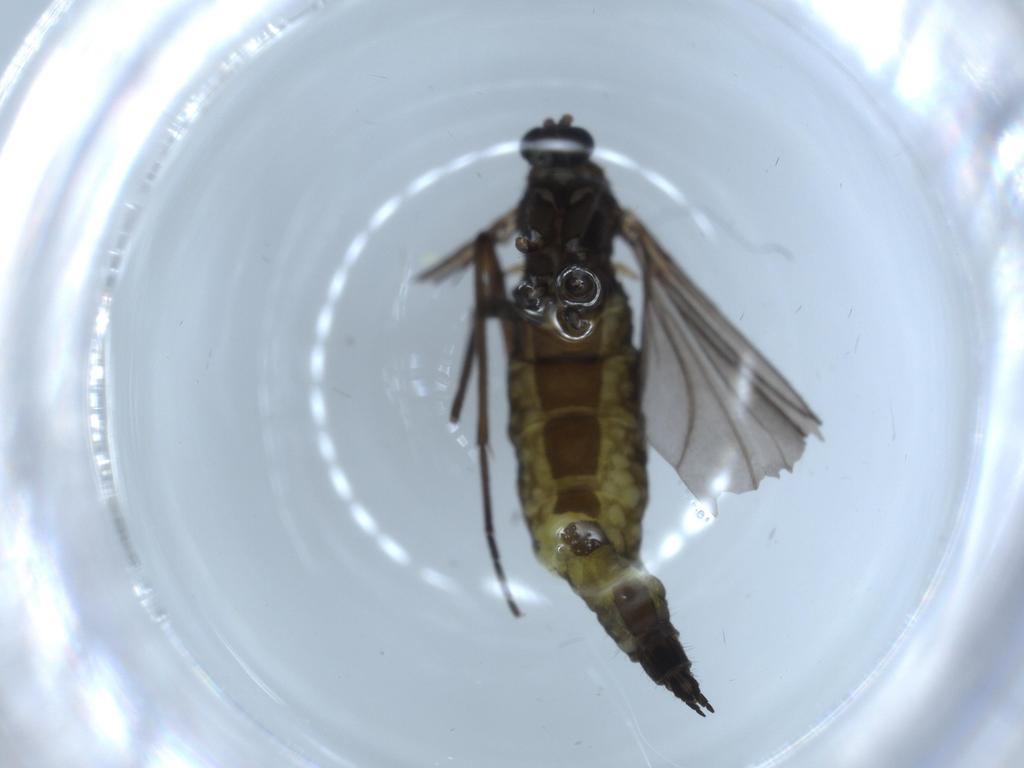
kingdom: Animalia
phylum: Arthropoda
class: Insecta
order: Diptera
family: Sciaridae
